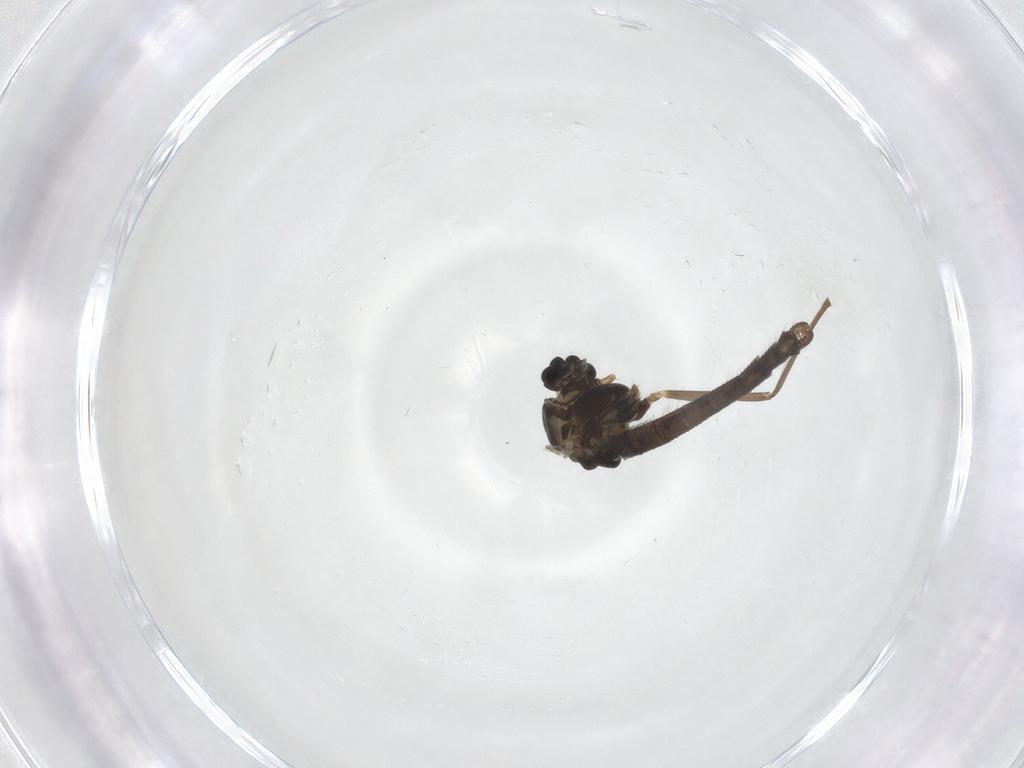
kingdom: Animalia
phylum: Arthropoda
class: Insecta
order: Diptera
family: Chironomidae
